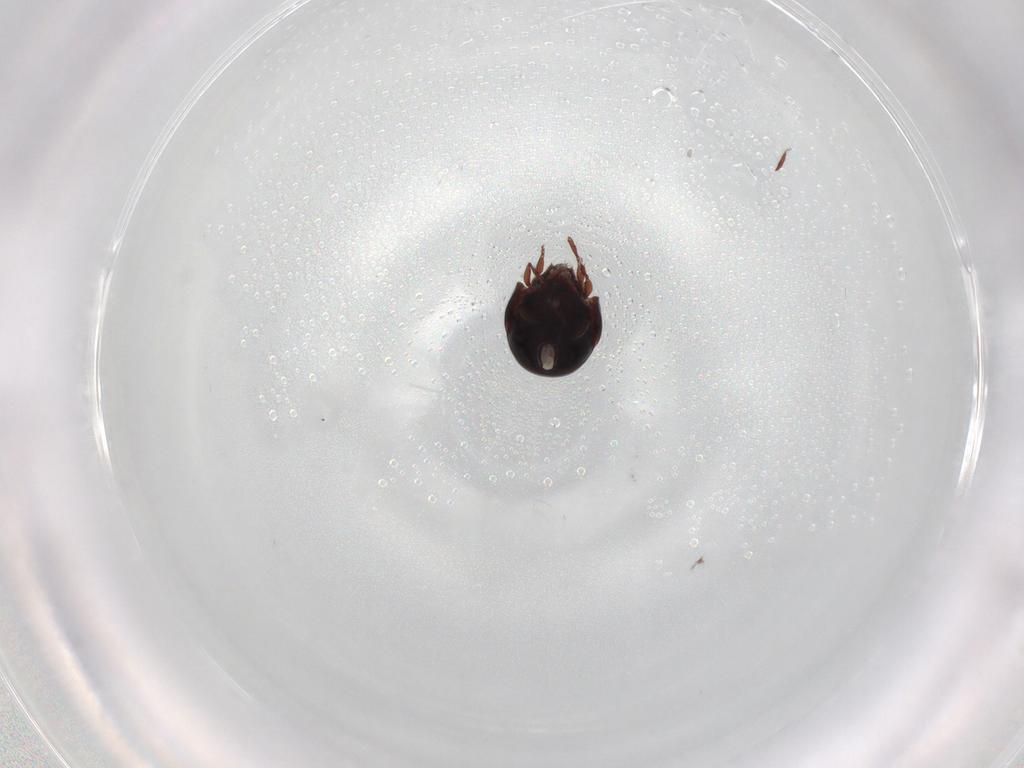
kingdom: Animalia
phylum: Arthropoda
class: Arachnida
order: Sarcoptiformes
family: Mochlozetidae
